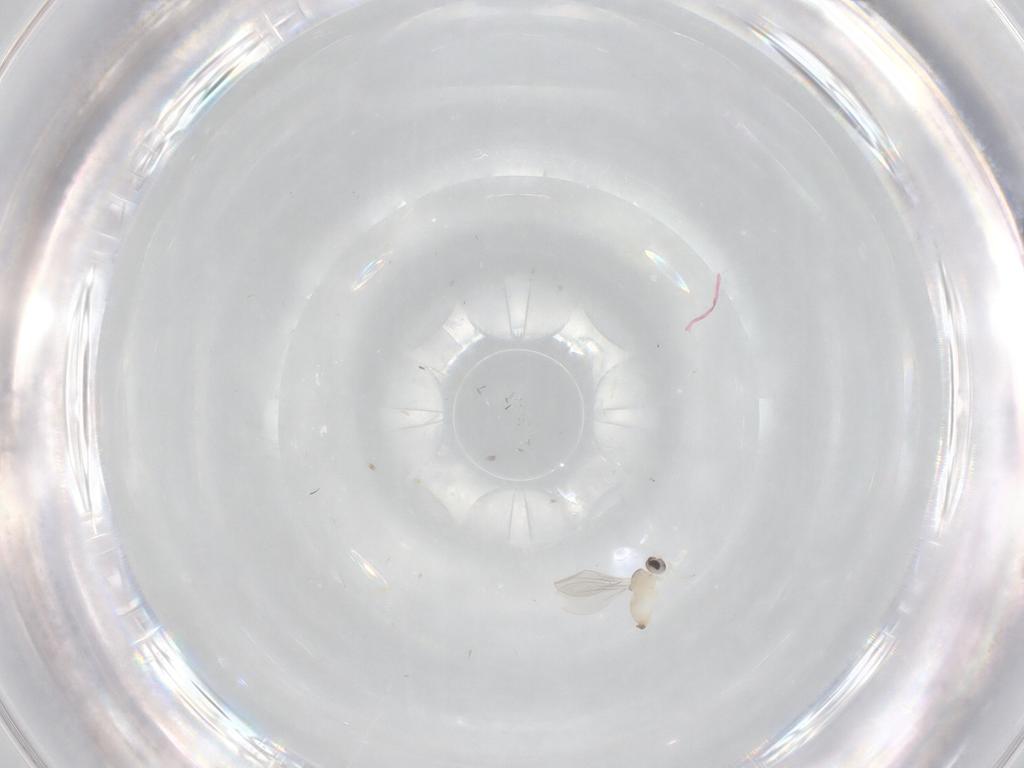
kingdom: Animalia
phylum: Arthropoda
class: Insecta
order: Diptera
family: Cecidomyiidae
